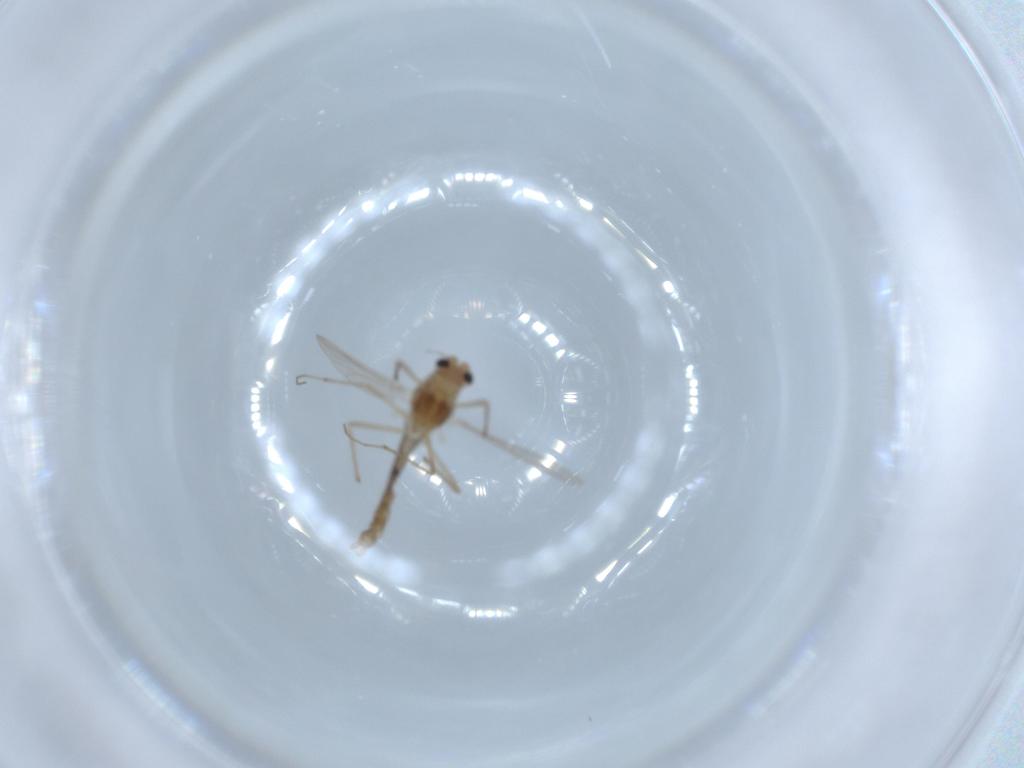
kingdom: Animalia
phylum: Arthropoda
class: Insecta
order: Diptera
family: Chironomidae
